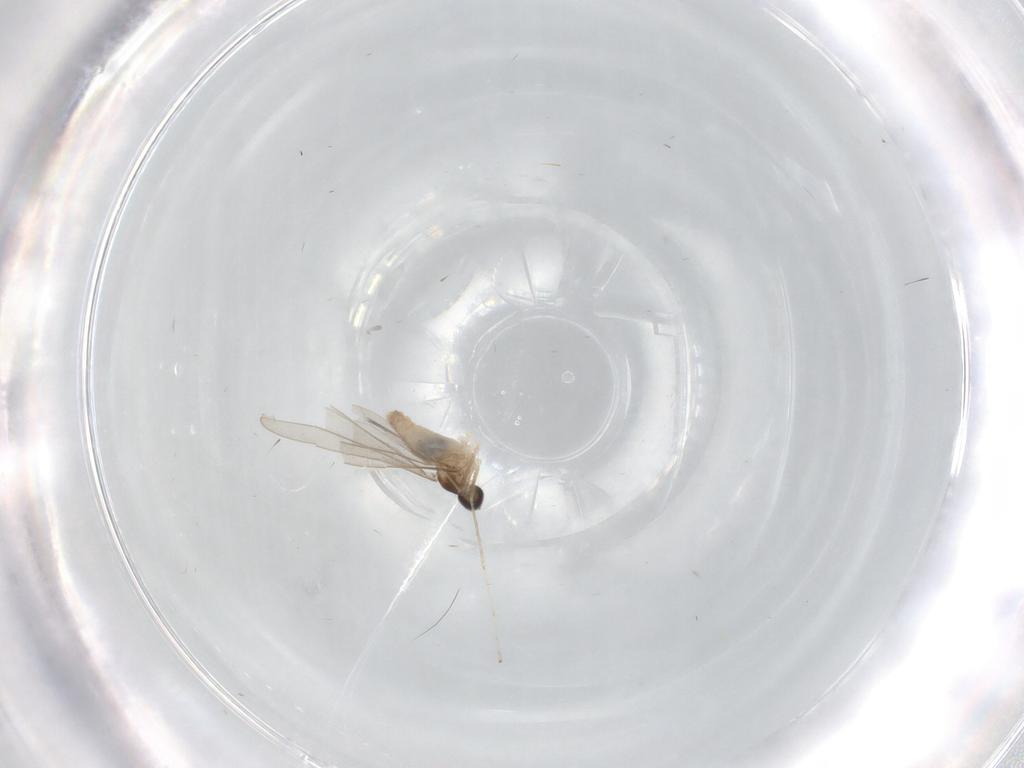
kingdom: Animalia
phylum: Arthropoda
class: Insecta
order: Diptera
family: Cecidomyiidae
